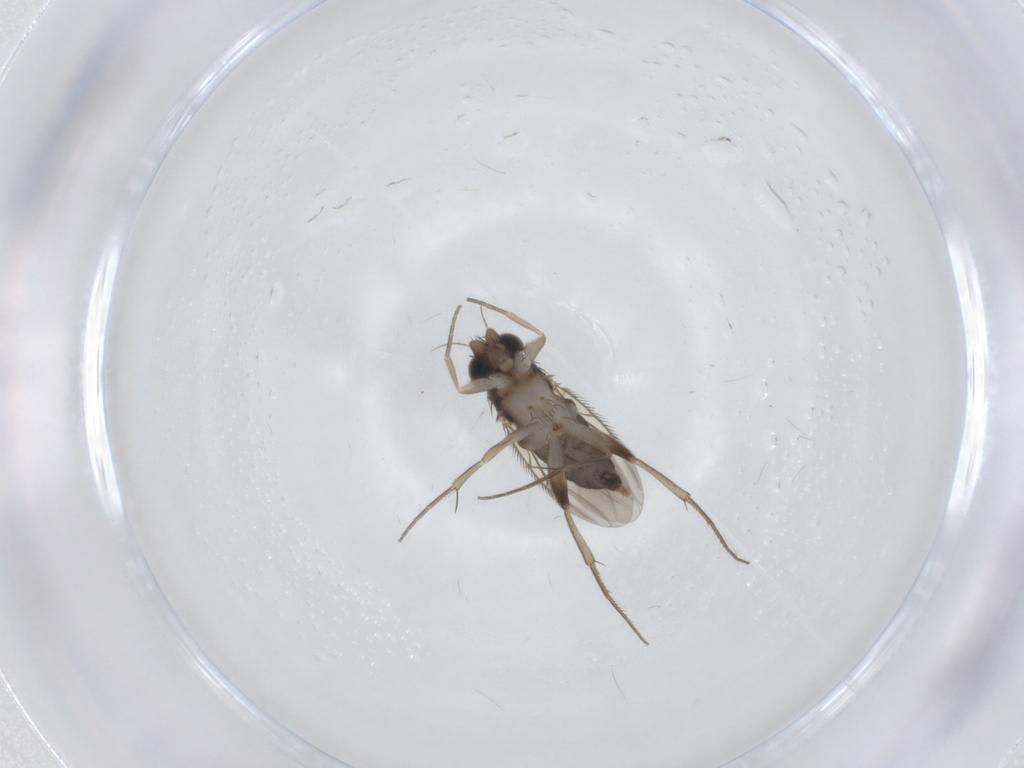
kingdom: Animalia
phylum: Arthropoda
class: Insecta
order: Diptera
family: Phoridae
